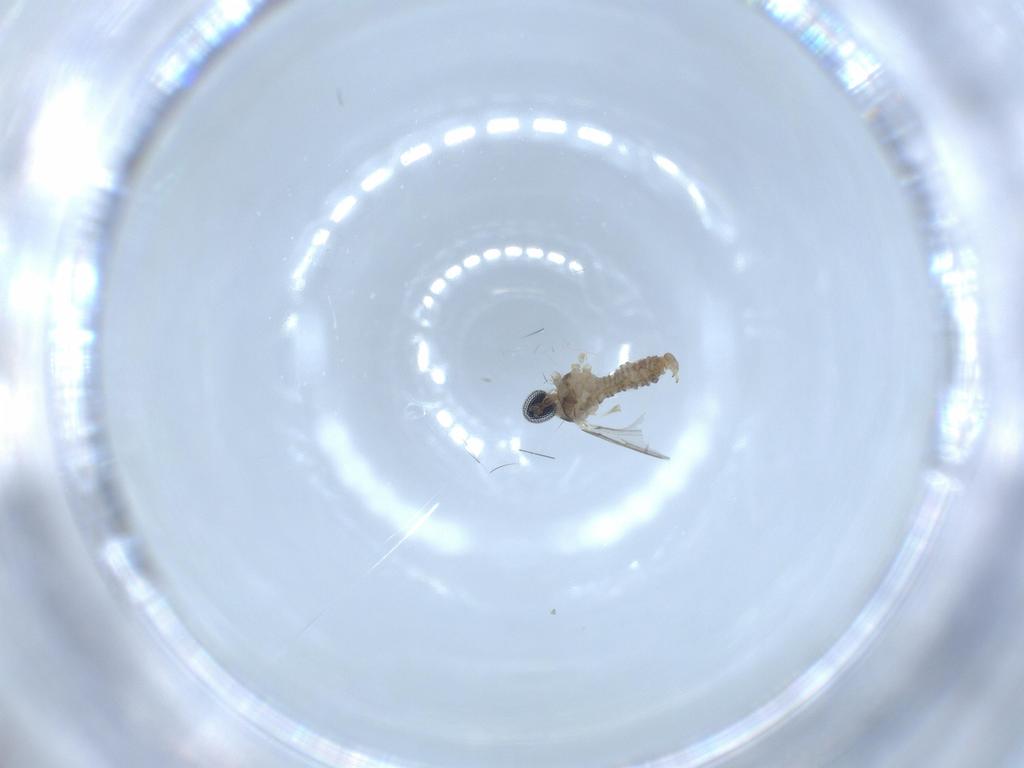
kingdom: Animalia
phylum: Arthropoda
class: Insecta
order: Diptera
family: Cecidomyiidae
